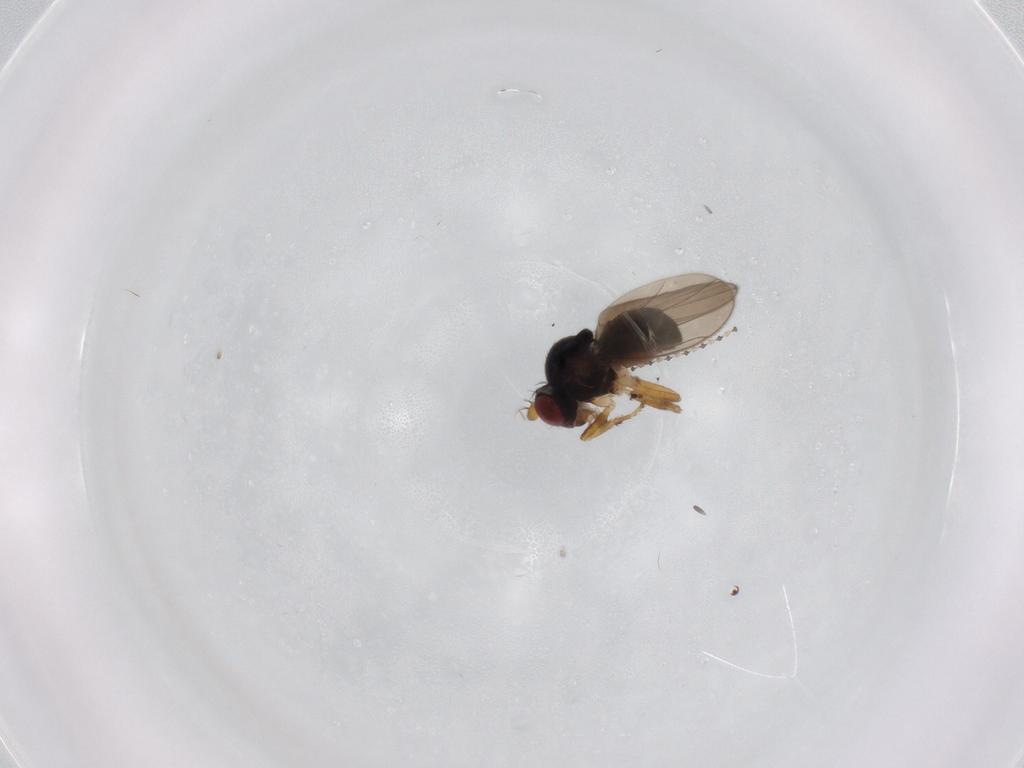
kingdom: Animalia
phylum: Arthropoda
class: Insecta
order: Diptera
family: Ephydridae
